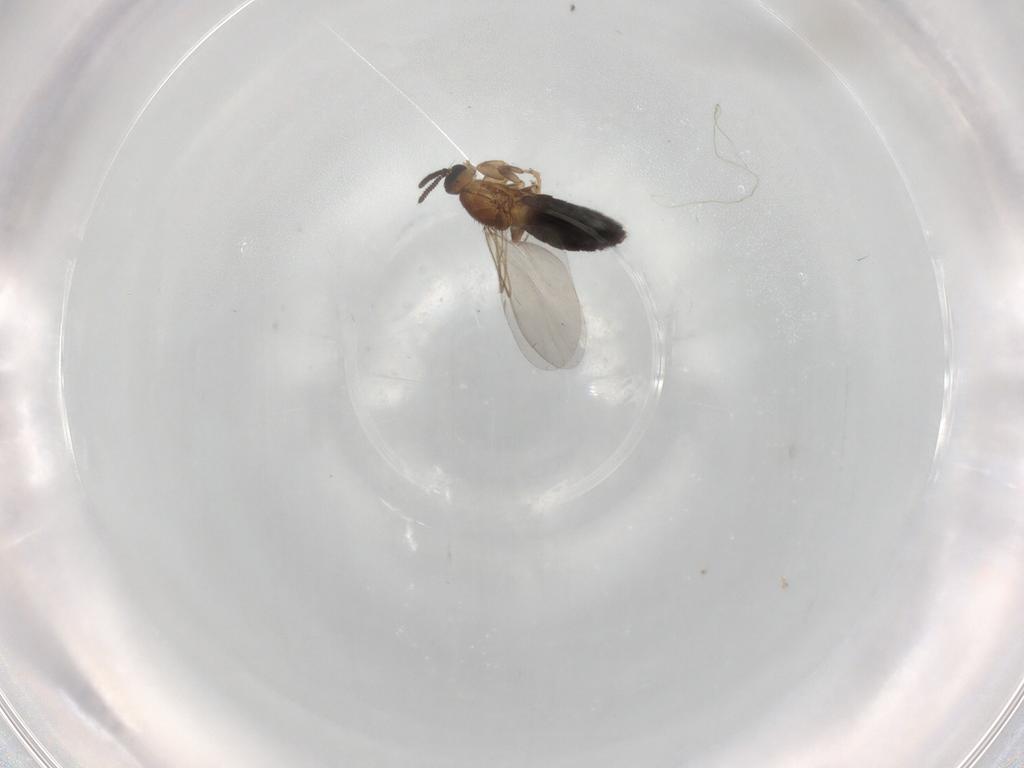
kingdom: Animalia
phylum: Arthropoda
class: Insecta
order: Diptera
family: Scatopsidae
